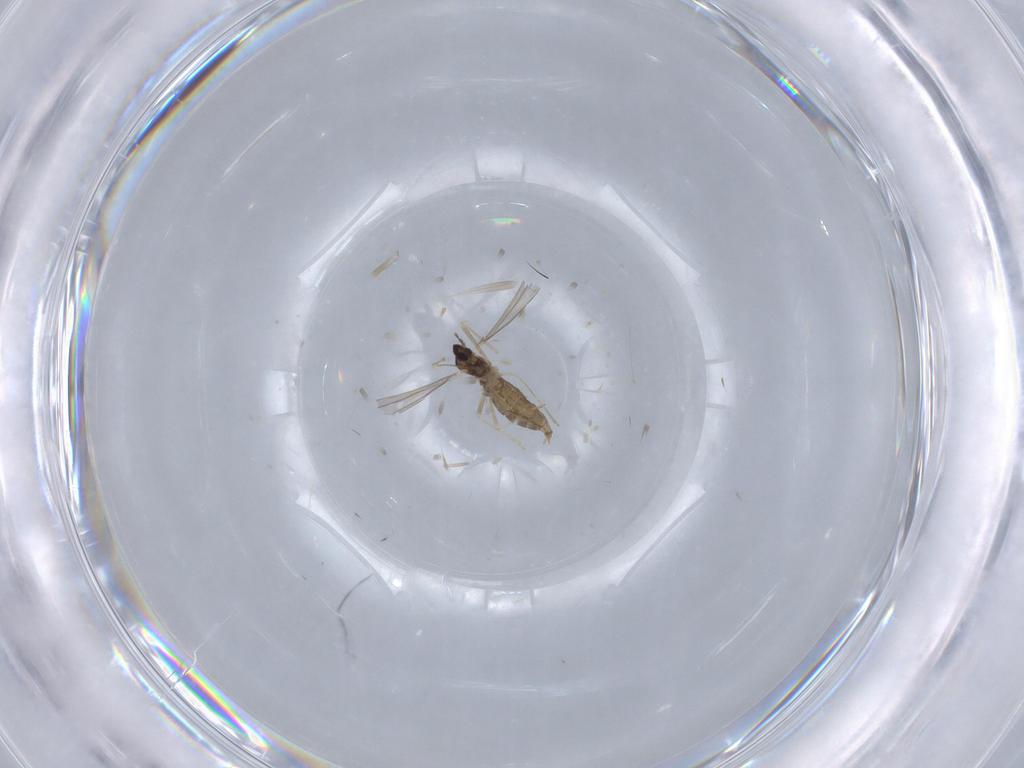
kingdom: Animalia
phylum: Arthropoda
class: Insecta
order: Diptera
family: Cecidomyiidae
